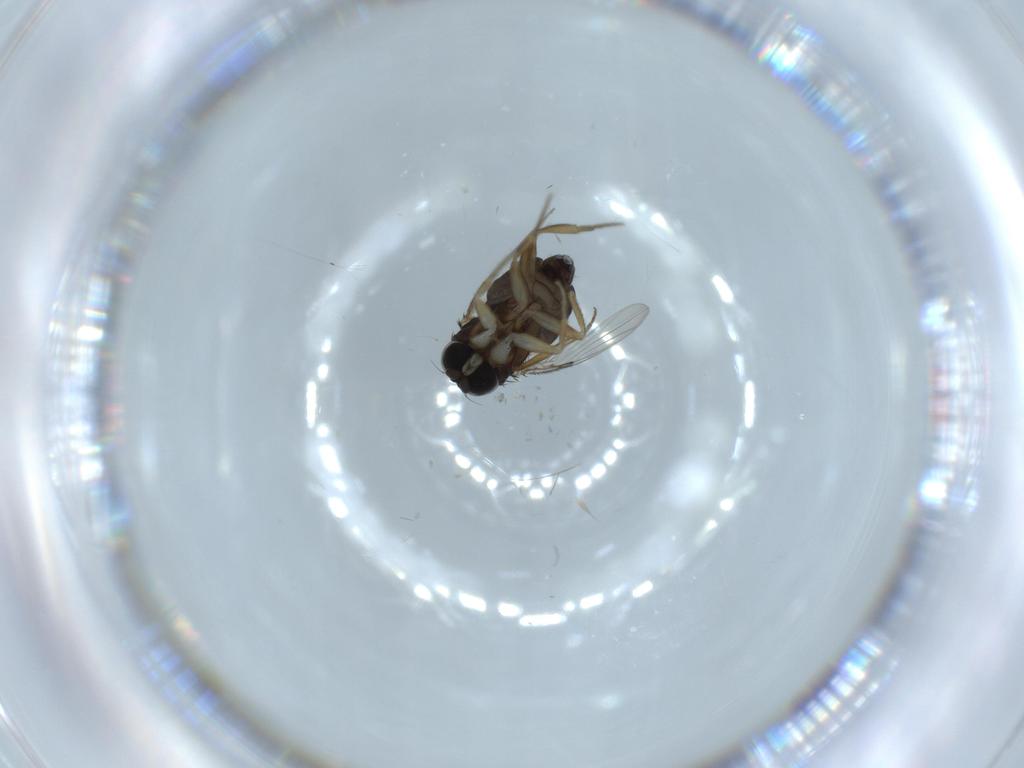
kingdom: Animalia
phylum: Arthropoda
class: Insecta
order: Diptera
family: Phoridae
